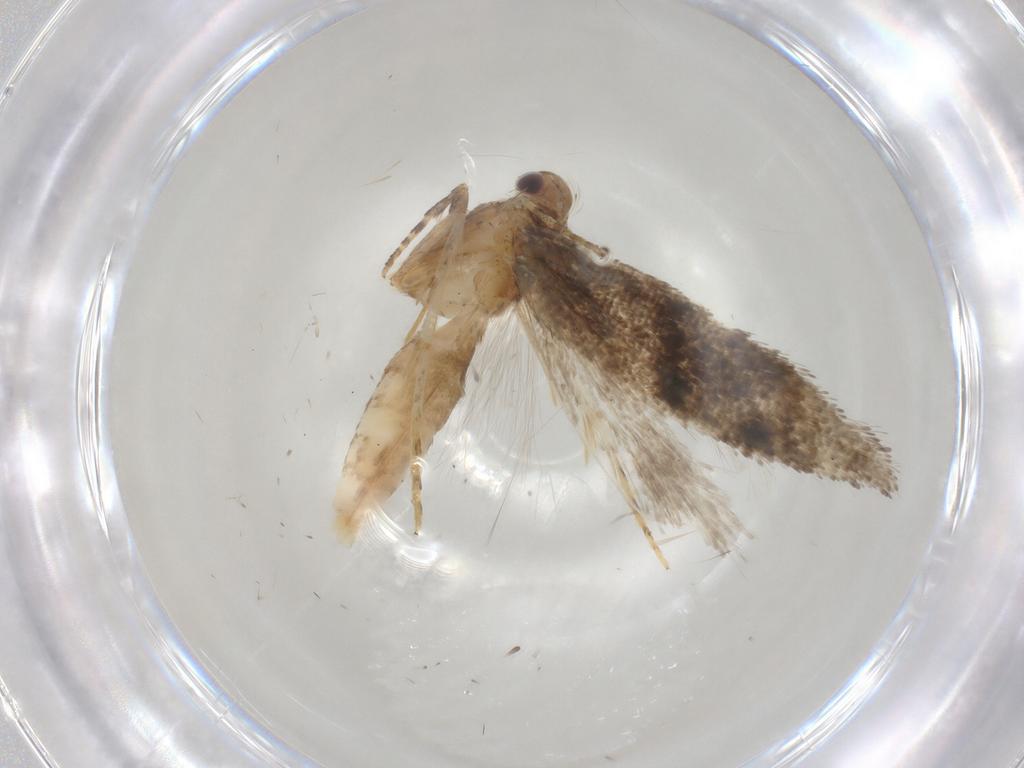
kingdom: Animalia
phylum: Arthropoda
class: Insecta
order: Lepidoptera
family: Gelechiidae
